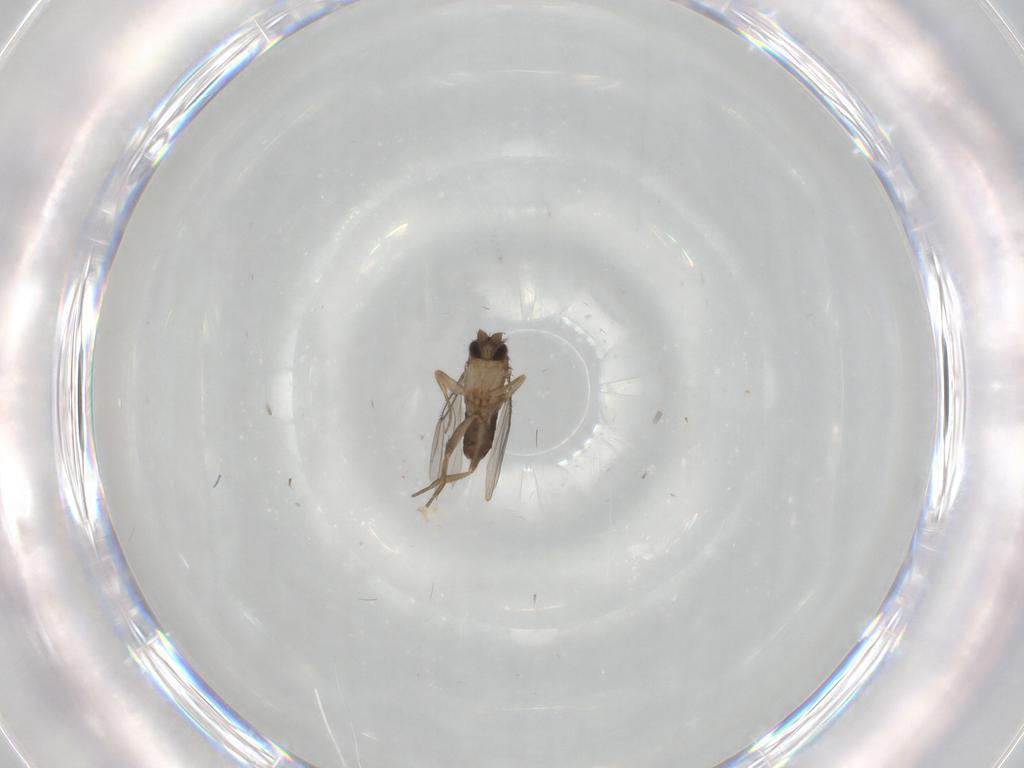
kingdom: Animalia
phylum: Arthropoda
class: Insecta
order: Diptera
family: Phoridae
